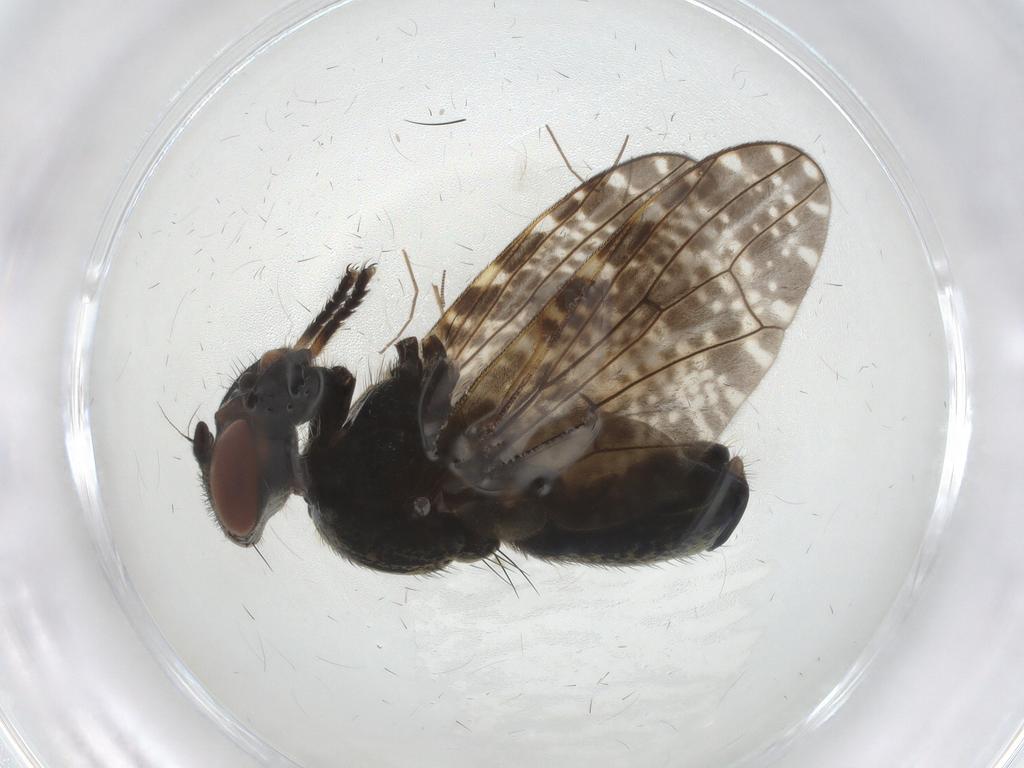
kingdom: Animalia
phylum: Arthropoda
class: Insecta
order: Diptera
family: Platystomatidae
